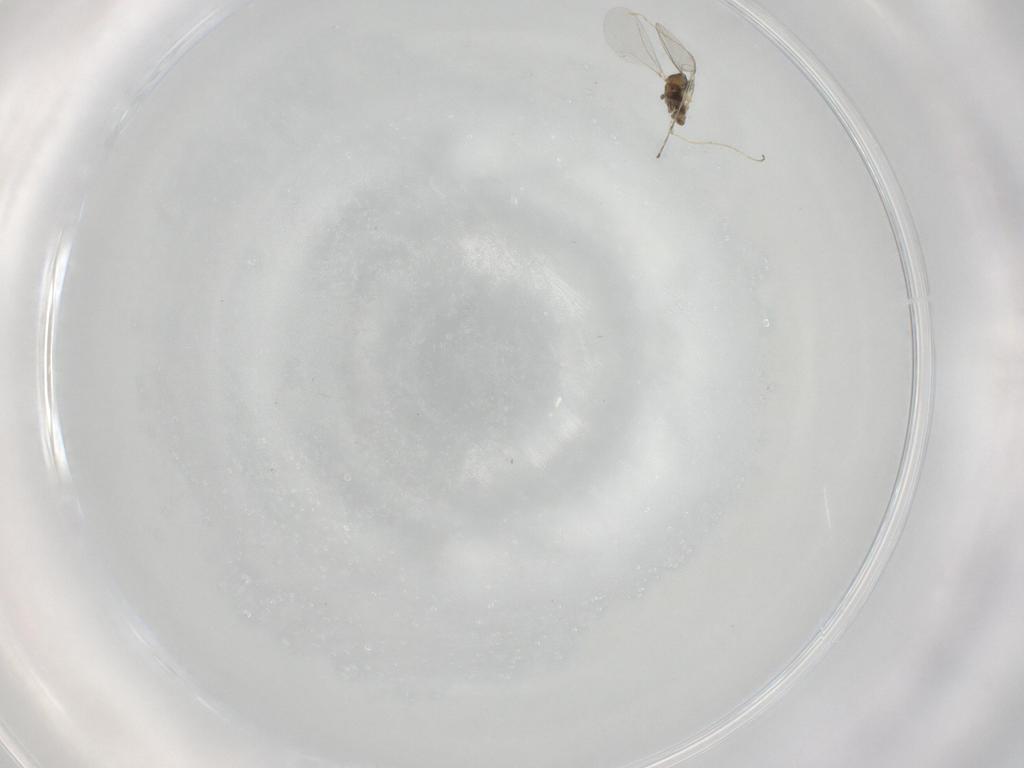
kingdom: Animalia
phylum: Arthropoda
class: Insecta
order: Diptera
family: Cecidomyiidae
